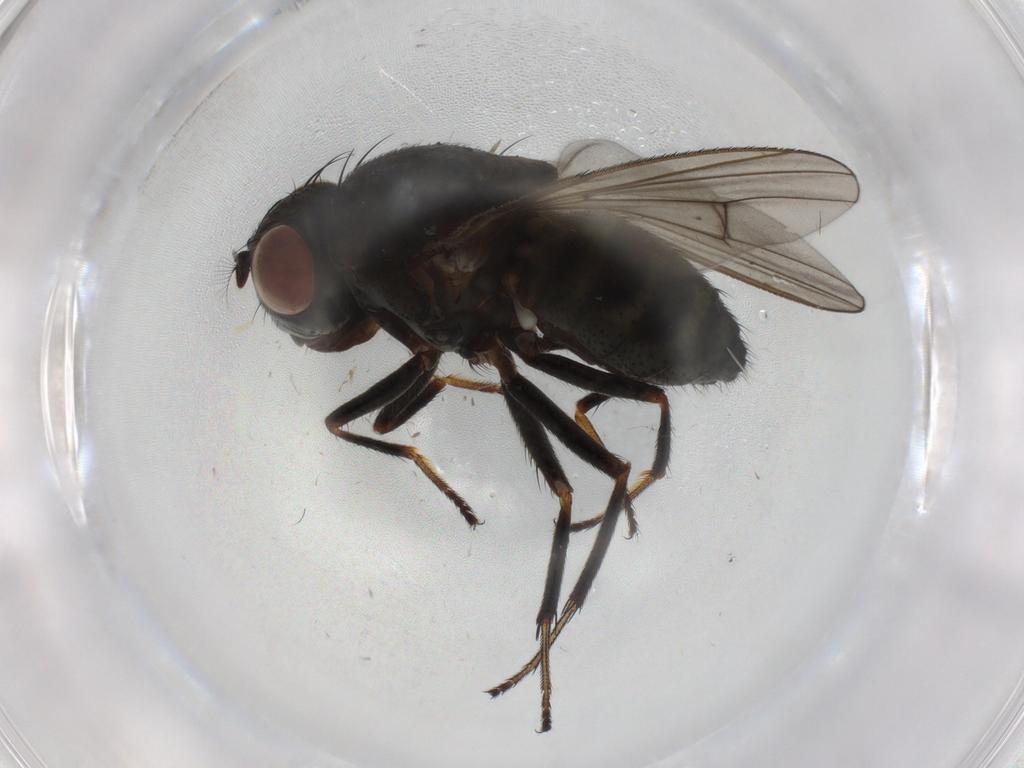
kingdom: Animalia
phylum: Arthropoda
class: Insecta
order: Diptera
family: Ephydridae
